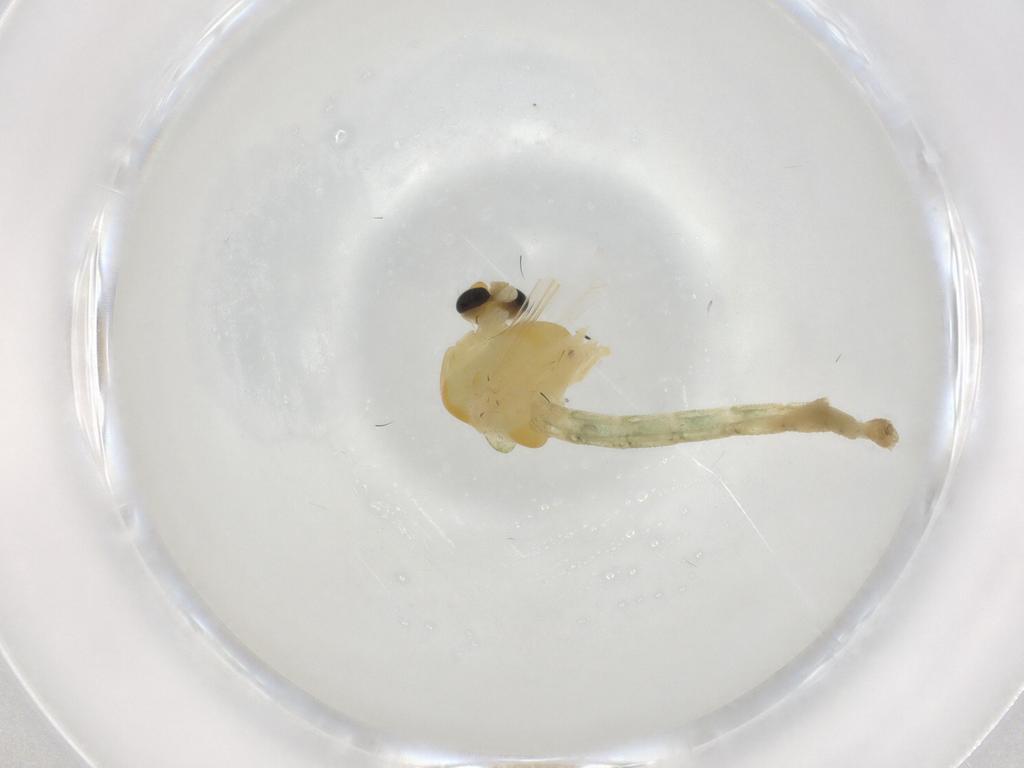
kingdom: Animalia
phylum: Arthropoda
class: Insecta
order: Diptera
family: Chironomidae
